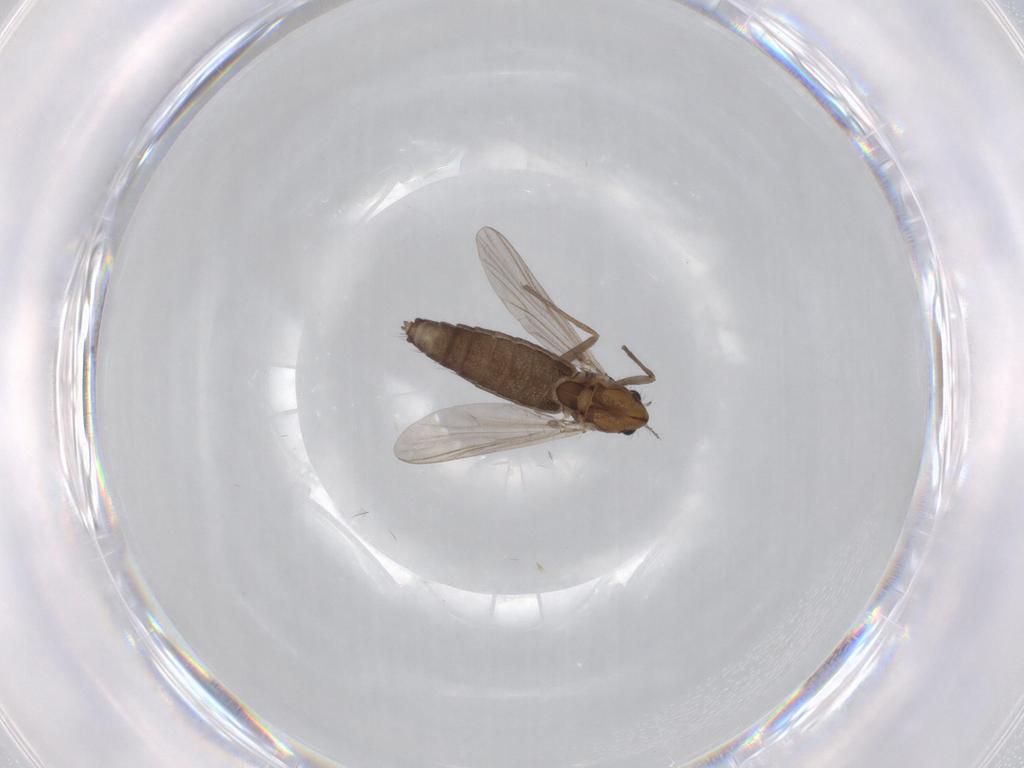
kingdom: Animalia
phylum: Arthropoda
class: Insecta
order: Diptera
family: Chironomidae
